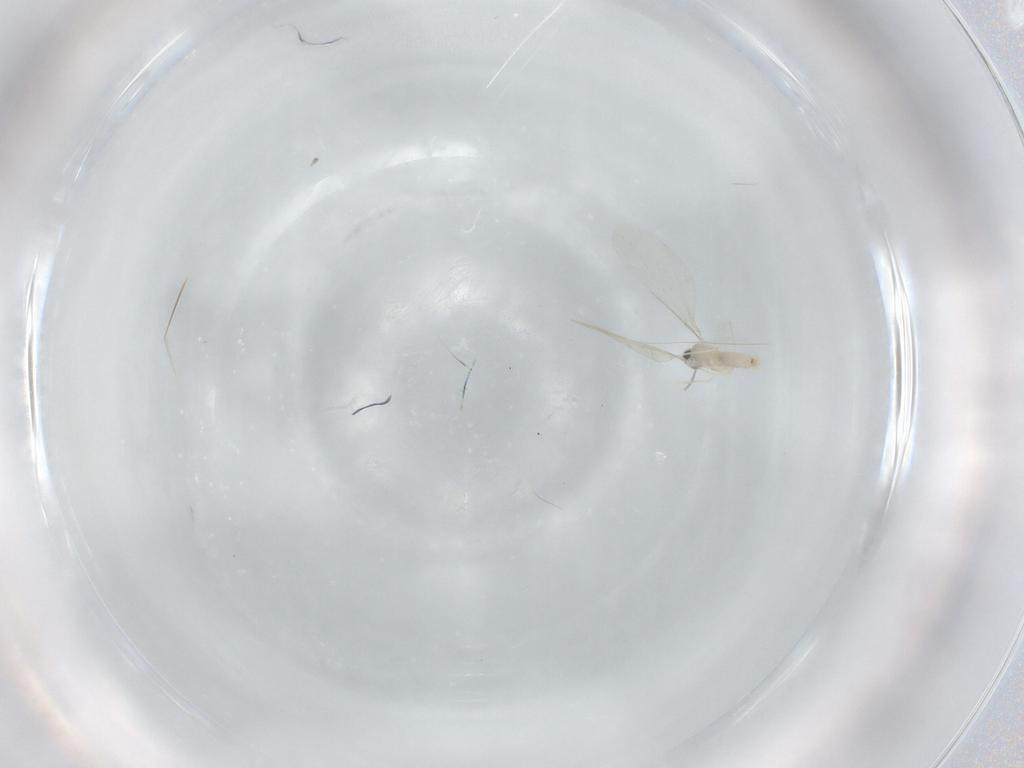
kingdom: Animalia
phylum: Arthropoda
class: Insecta
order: Diptera
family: Cecidomyiidae
